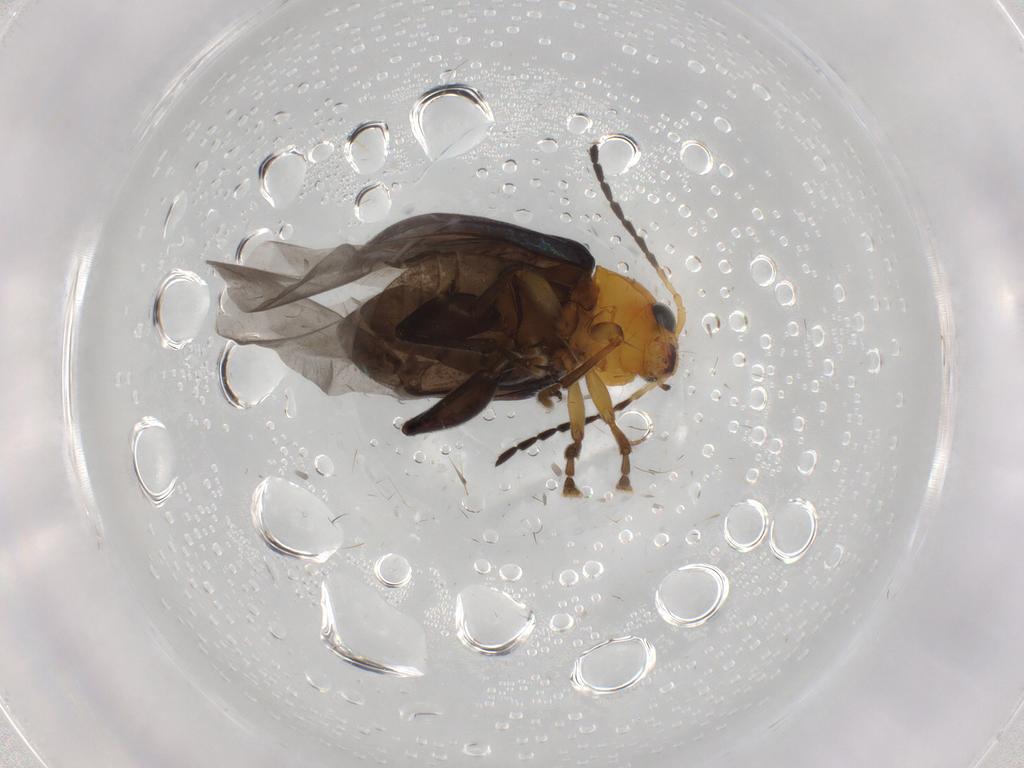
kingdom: Animalia
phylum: Arthropoda
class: Insecta
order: Coleoptera
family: Chrysomelidae
